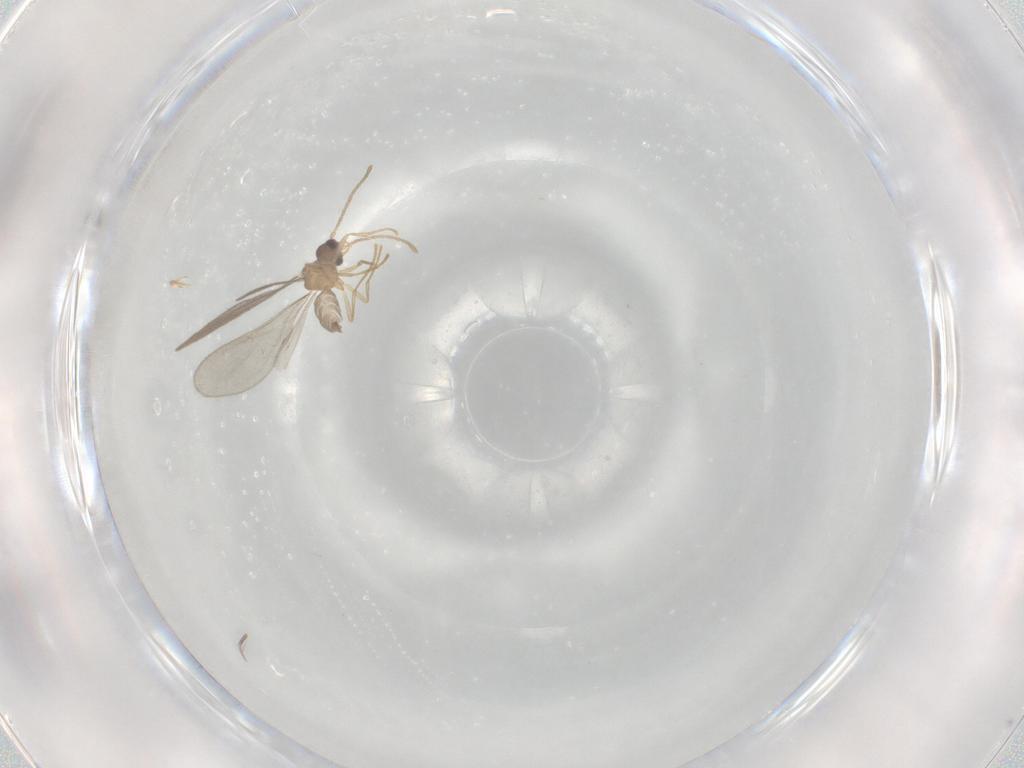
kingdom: Animalia
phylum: Arthropoda
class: Insecta
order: Hymenoptera
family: Formicidae
